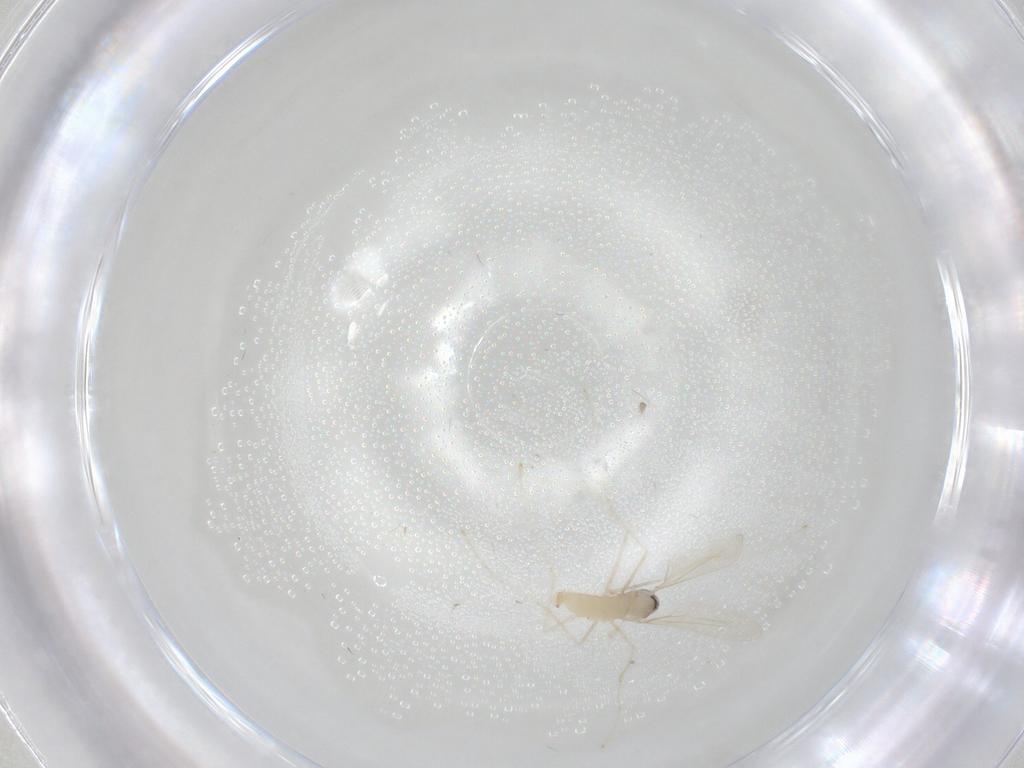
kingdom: Animalia
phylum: Arthropoda
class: Insecta
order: Diptera
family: Cecidomyiidae
